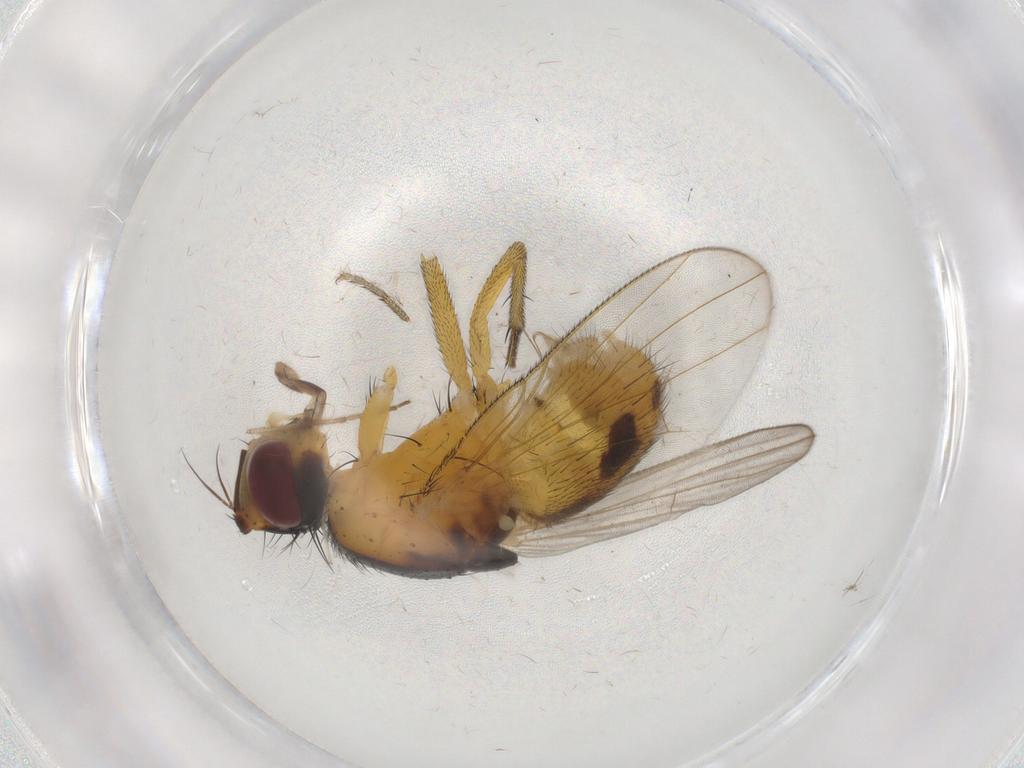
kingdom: Animalia
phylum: Arthropoda
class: Insecta
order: Diptera
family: Muscidae
